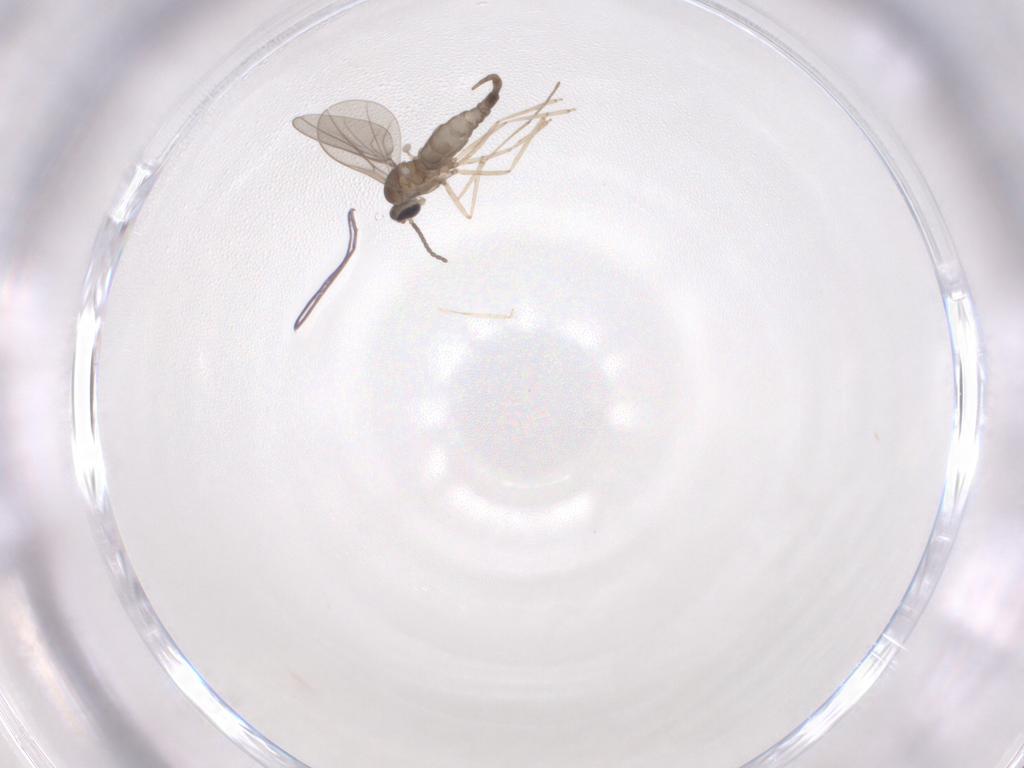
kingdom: Animalia
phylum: Arthropoda
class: Insecta
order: Diptera
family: Cecidomyiidae
